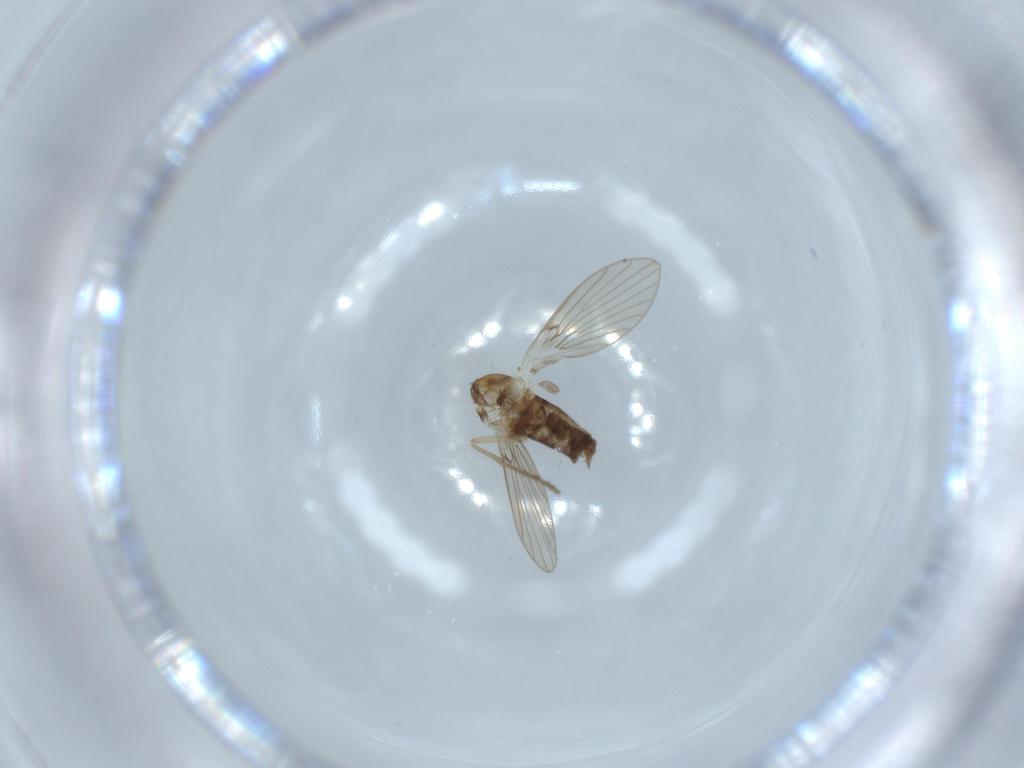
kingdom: Animalia
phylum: Arthropoda
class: Insecta
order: Diptera
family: Psychodidae
